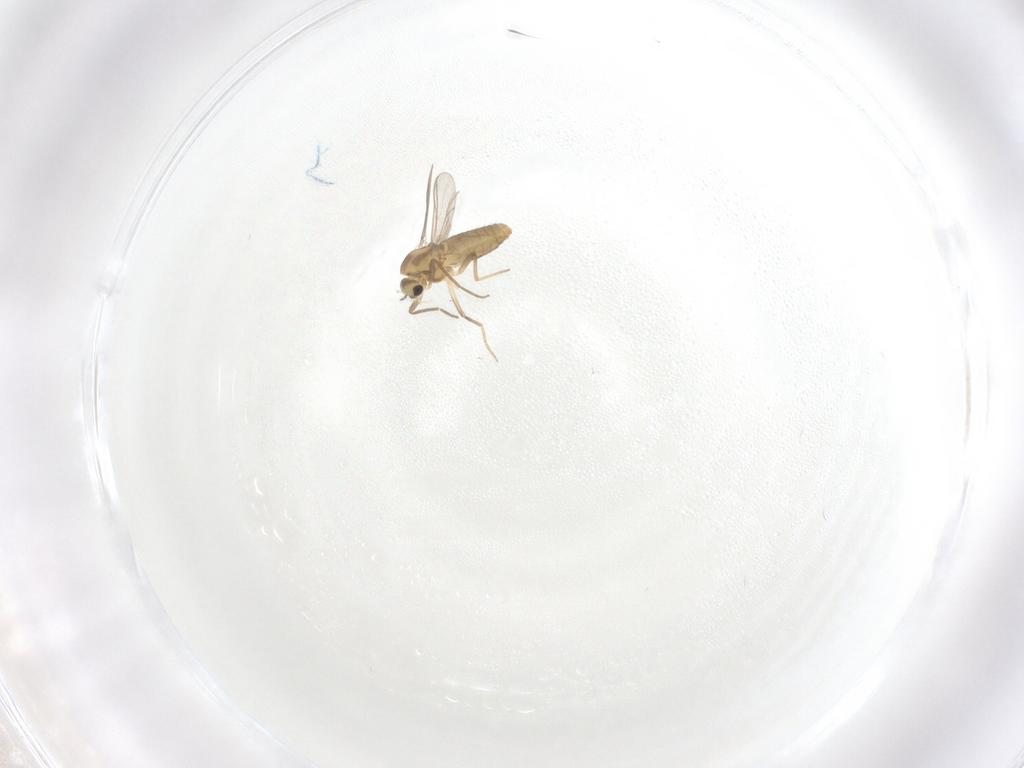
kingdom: Animalia
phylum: Arthropoda
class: Insecta
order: Diptera
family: Chironomidae
